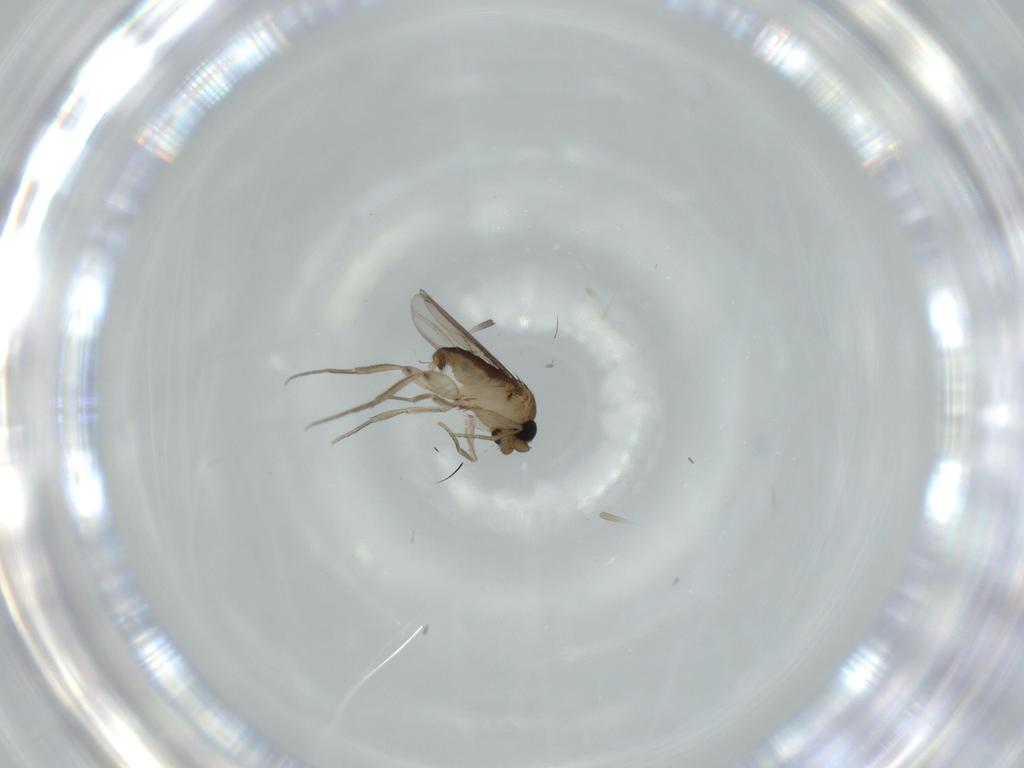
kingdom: Animalia
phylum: Arthropoda
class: Insecta
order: Diptera
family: Phoridae
